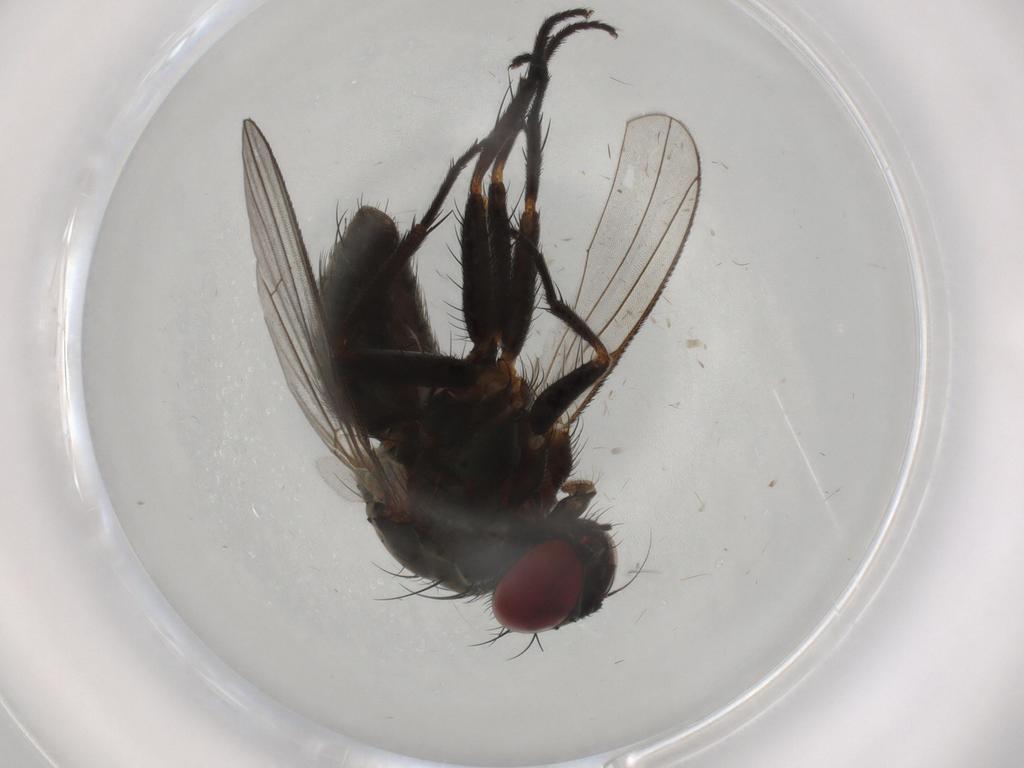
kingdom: Animalia
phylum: Arthropoda
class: Insecta
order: Diptera
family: Muscidae
